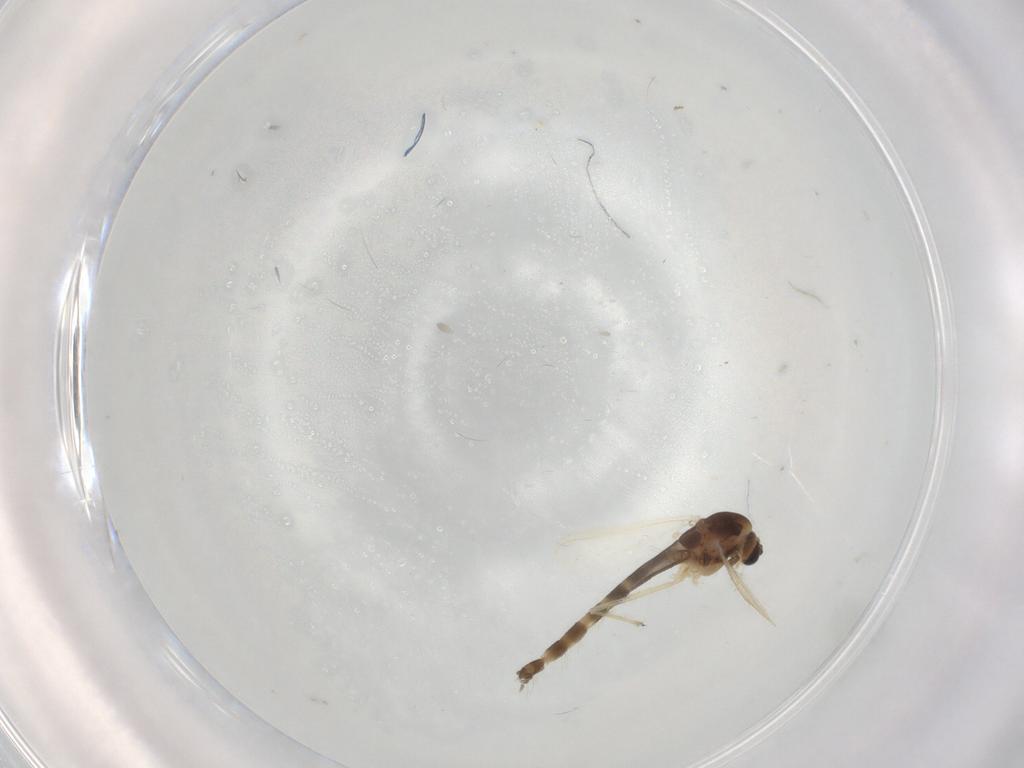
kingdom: Animalia
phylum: Arthropoda
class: Insecta
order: Diptera
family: Chironomidae
